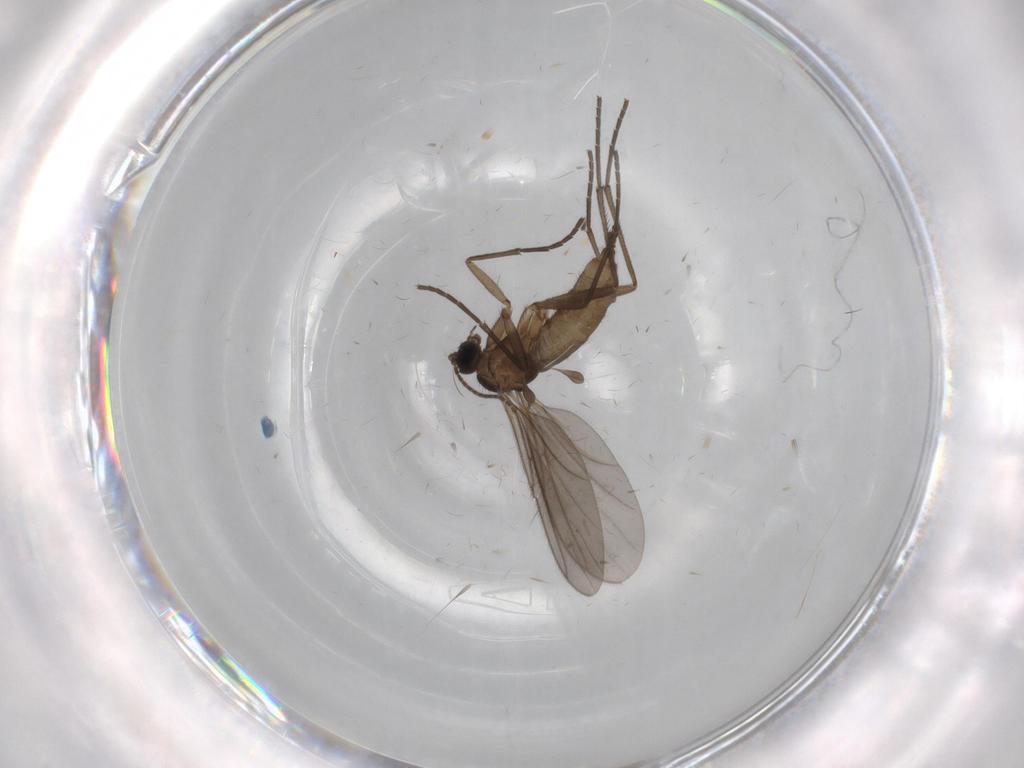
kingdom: Animalia
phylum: Arthropoda
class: Insecta
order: Diptera
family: Sciaridae
